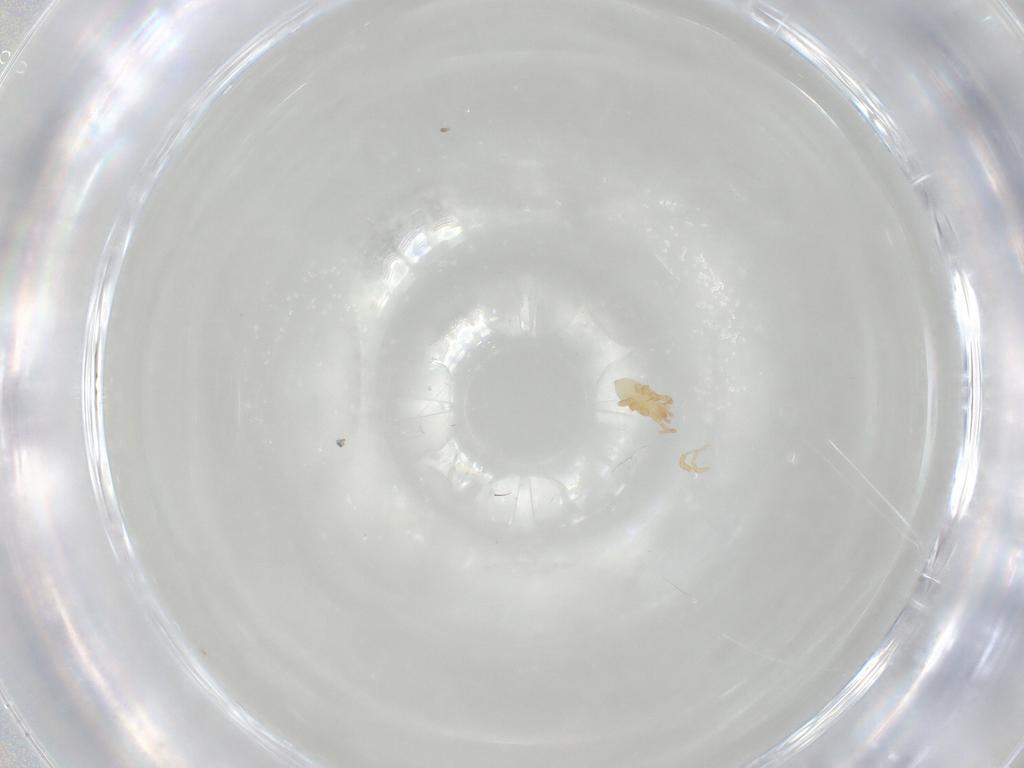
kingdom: Animalia
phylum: Arthropoda
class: Arachnida
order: Mesostigmata
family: Parasitidae
